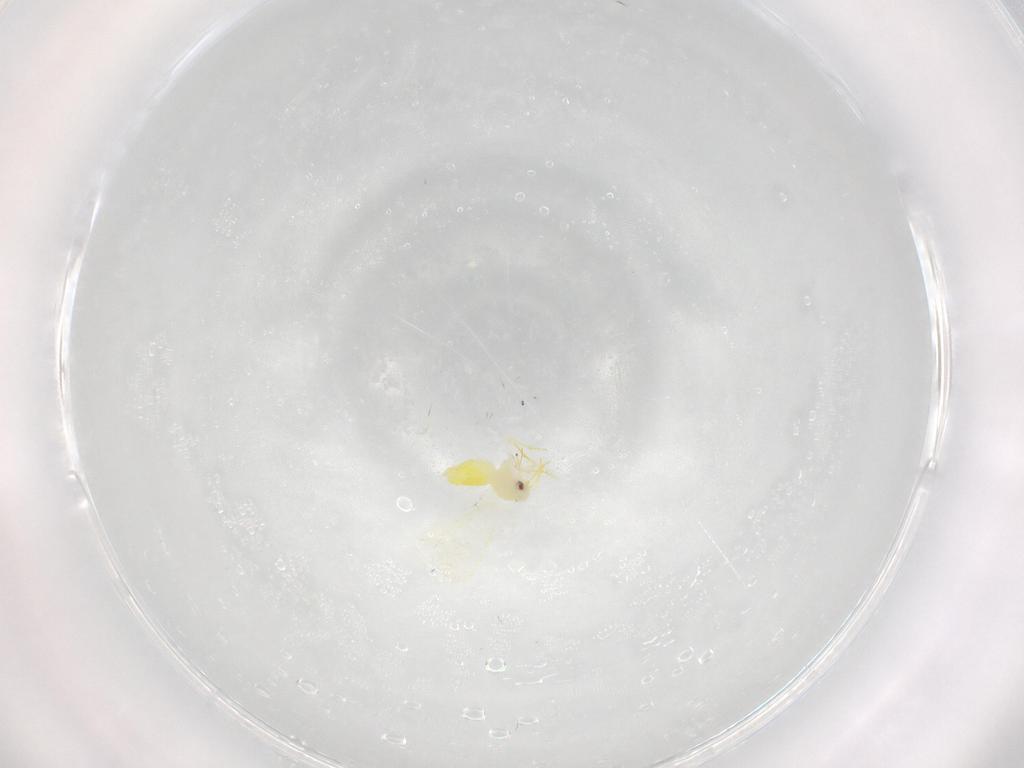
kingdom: Animalia
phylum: Arthropoda
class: Insecta
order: Hemiptera
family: Aleyrodidae
